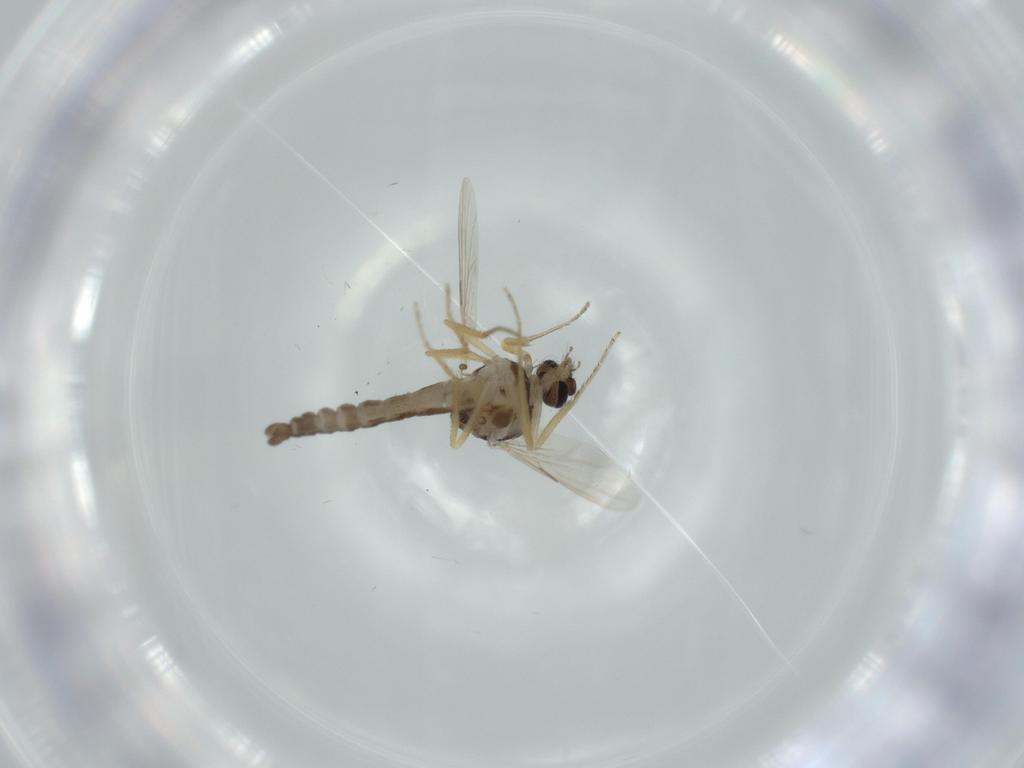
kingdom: Animalia
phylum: Arthropoda
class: Insecta
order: Diptera
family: Ceratopogonidae
